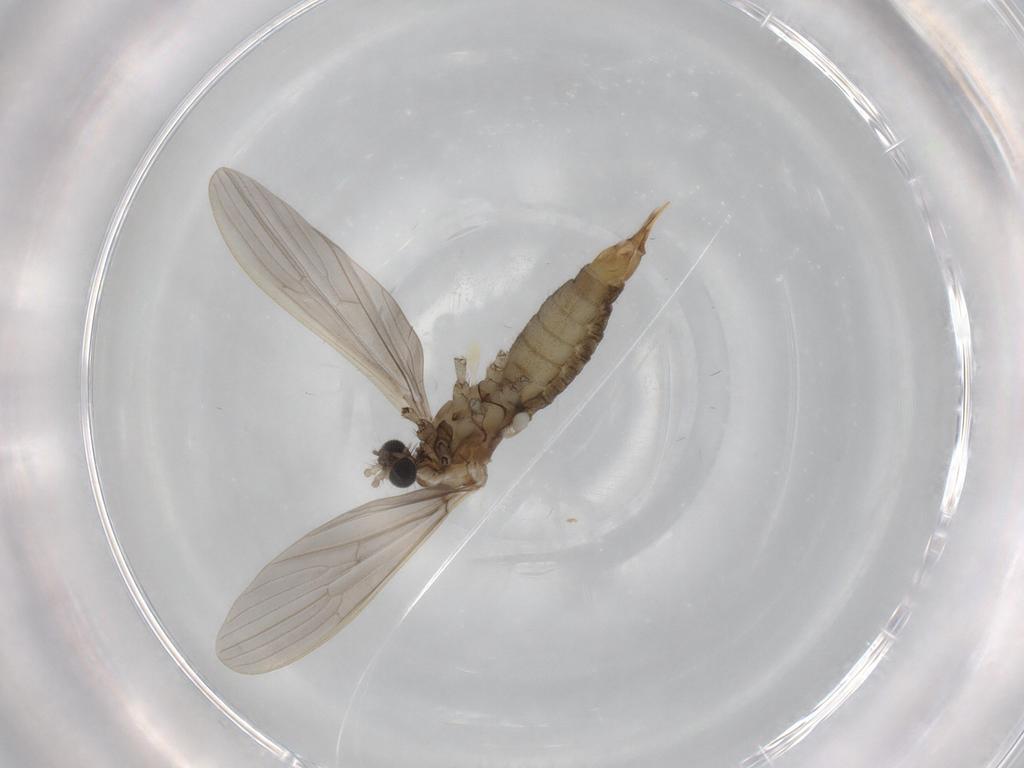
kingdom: Animalia
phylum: Arthropoda
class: Insecta
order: Diptera
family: Limoniidae
